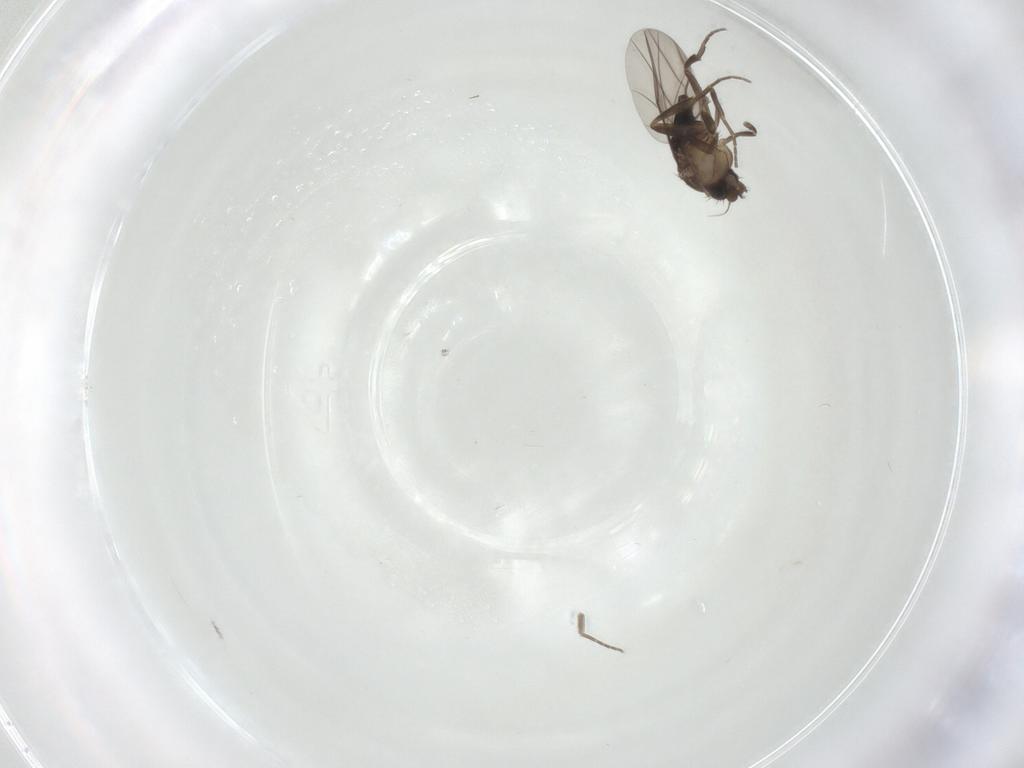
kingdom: Animalia
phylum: Arthropoda
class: Insecta
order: Diptera
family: Phoridae
